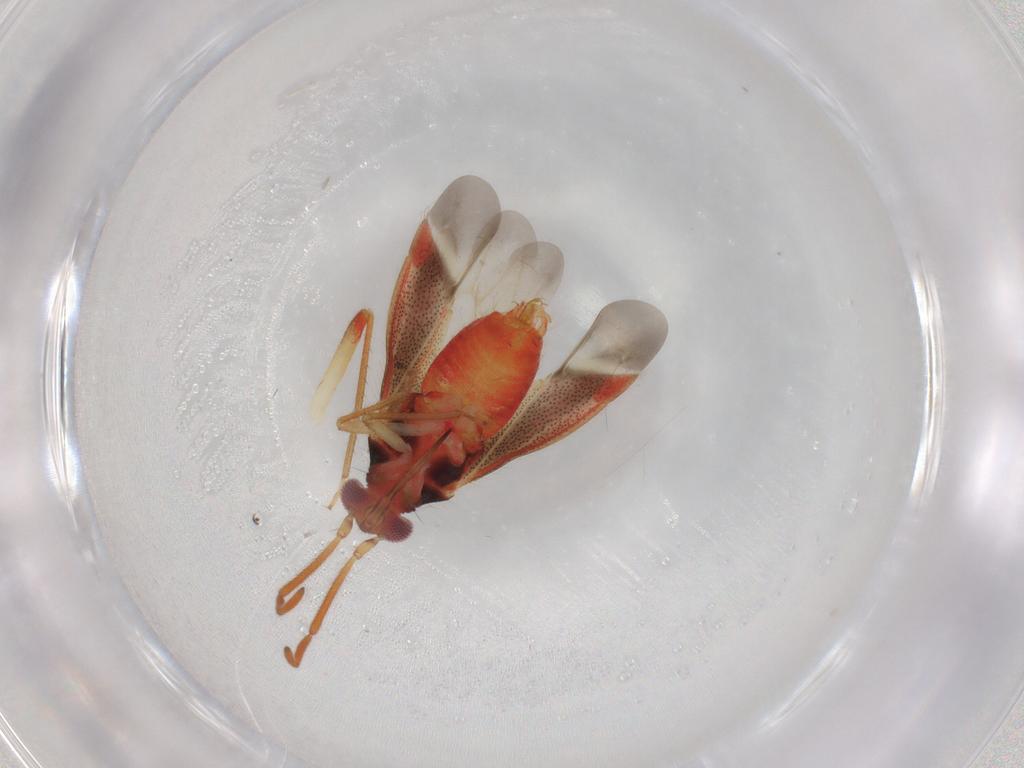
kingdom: Animalia
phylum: Arthropoda
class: Insecta
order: Hemiptera
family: Miridae
